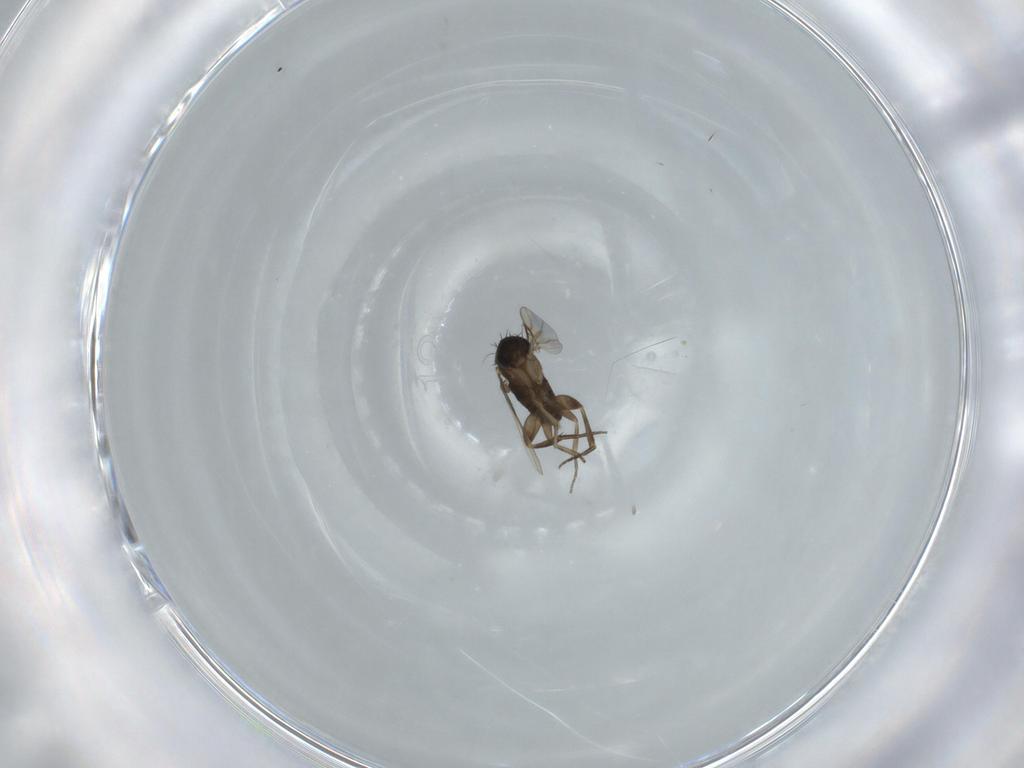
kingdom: Animalia
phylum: Arthropoda
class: Insecta
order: Diptera
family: Phoridae
